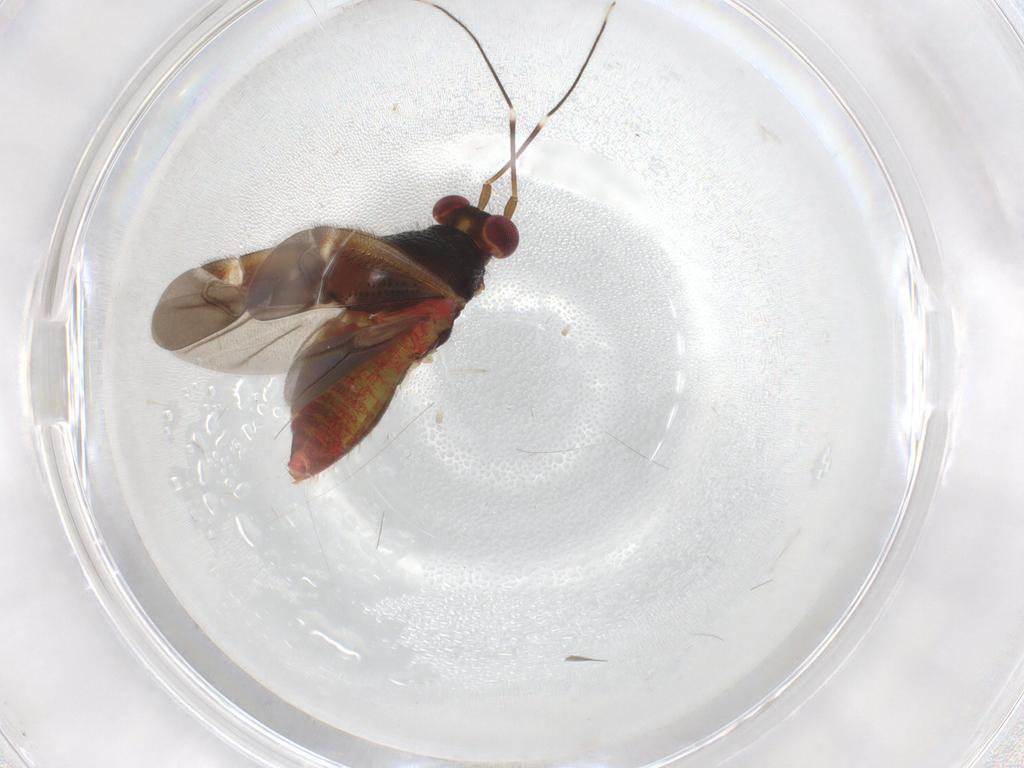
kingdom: Animalia
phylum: Arthropoda
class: Insecta
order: Hemiptera
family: Miridae
